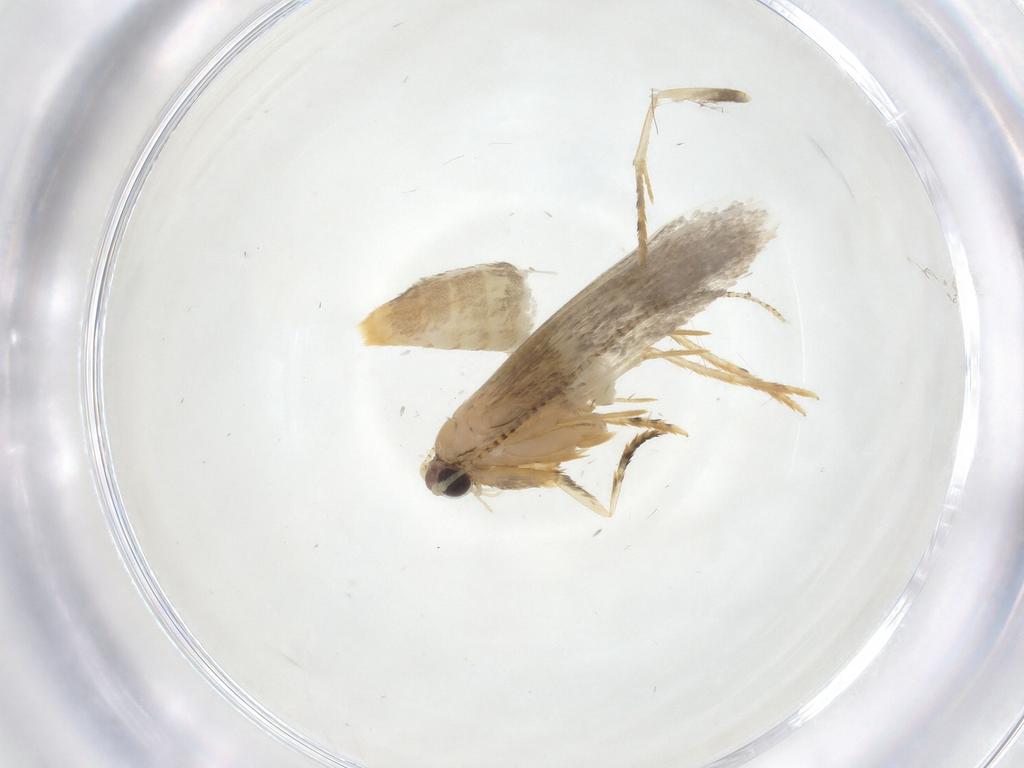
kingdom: Animalia
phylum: Arthropoda
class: Insecta
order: Lepidoptera
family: Tineidae
